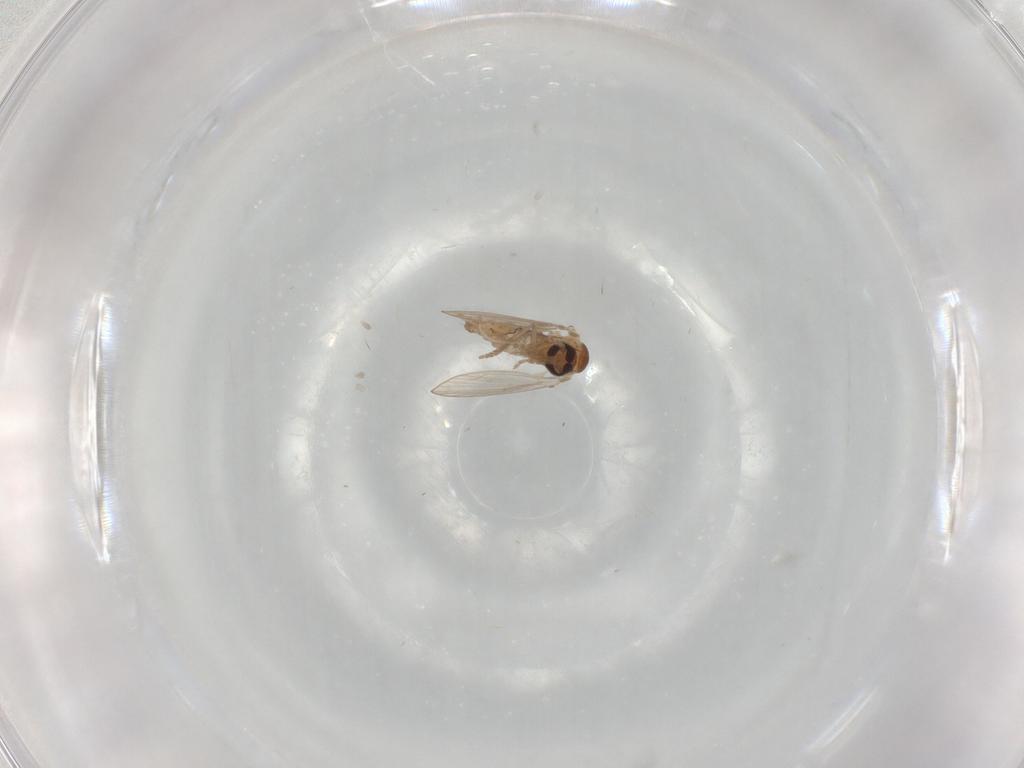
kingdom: Animalia
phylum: Arthropoda
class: Insecta
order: Diptera
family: Psychodidae
